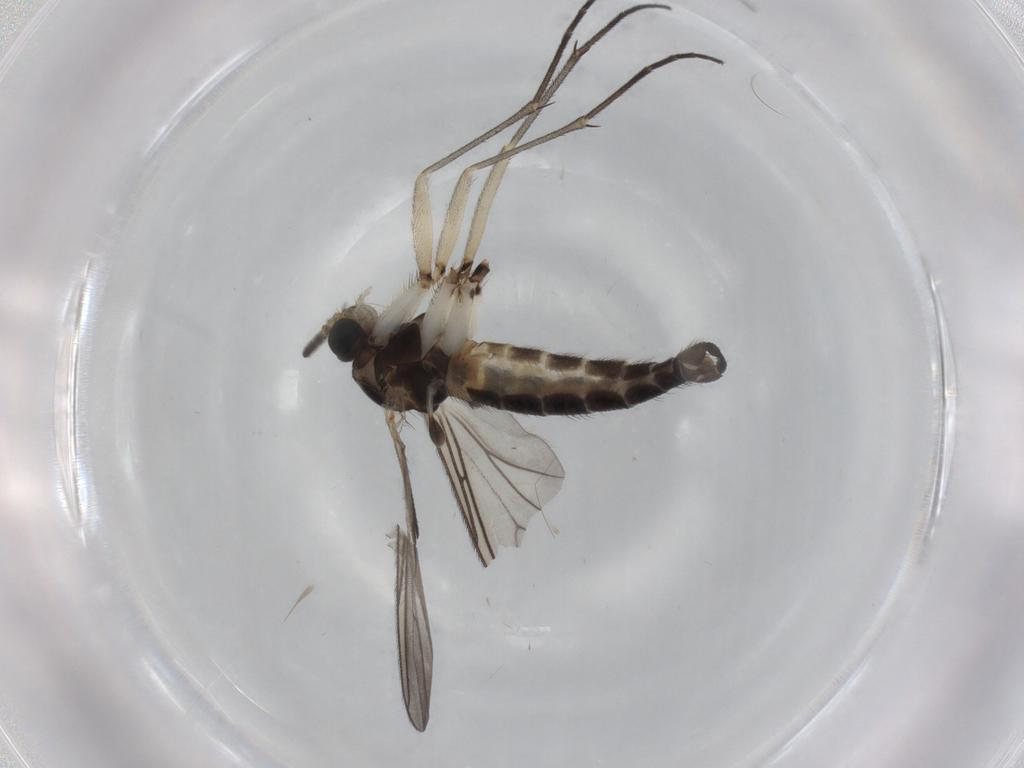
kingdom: Animalia
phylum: Arthropoda
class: Insecta
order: Diptera
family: Sciaridae
